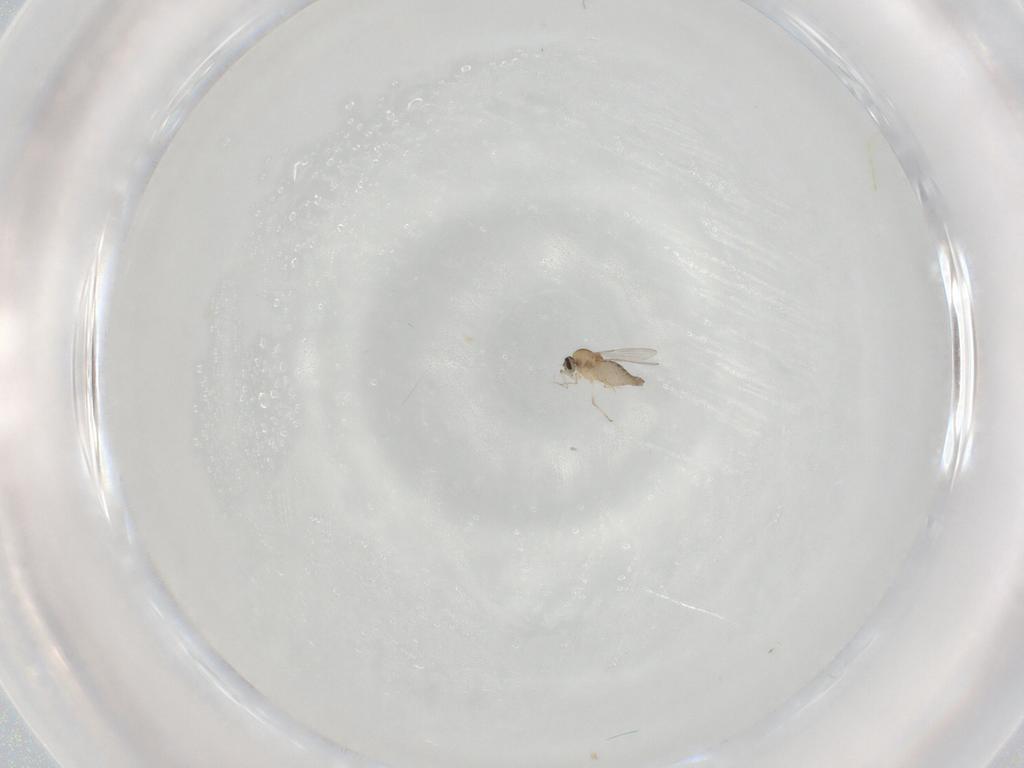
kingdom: Animalia
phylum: Arthropoda
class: Insecta
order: Diptera
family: Ceratopogonidae
